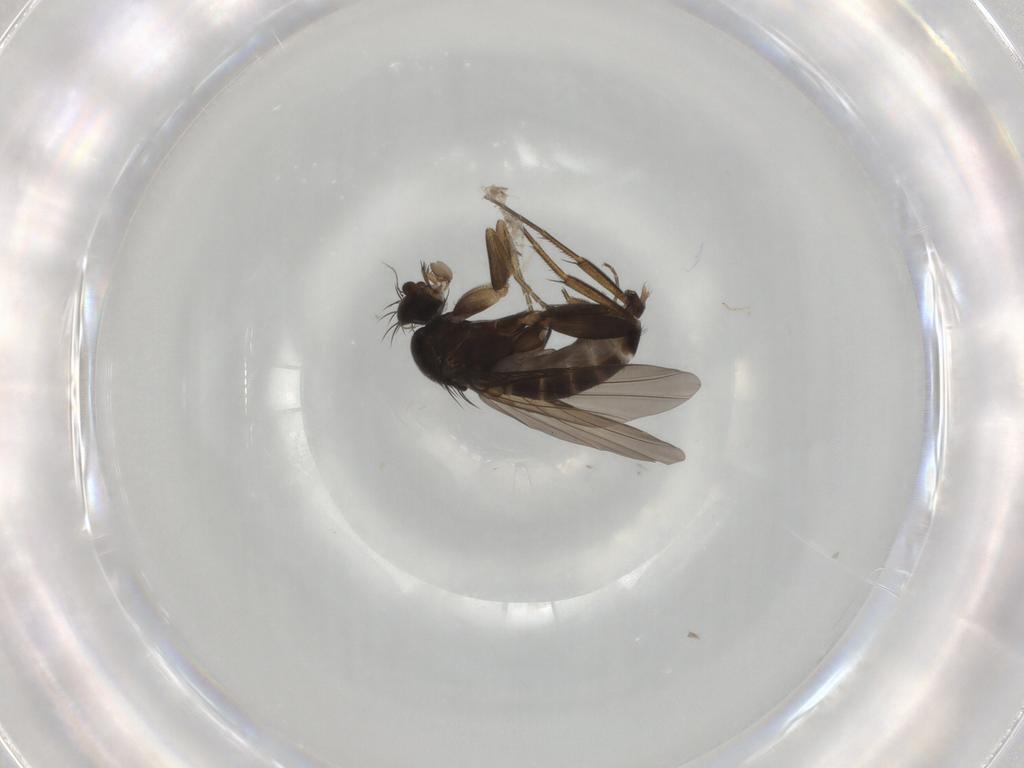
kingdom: Animalia
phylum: Arthropoda
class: Insecta
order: Diptera
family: Phoridae
